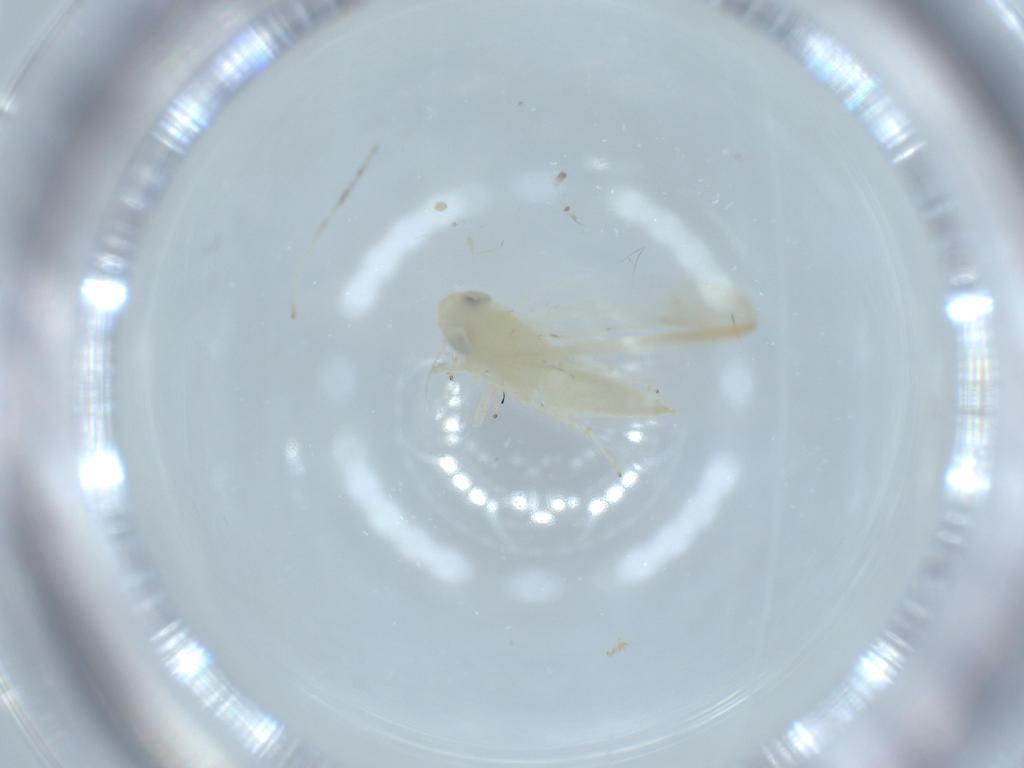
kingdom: Animalia
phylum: Arthropoda
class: Insecta
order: Hemiptera
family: Cicadellidae
